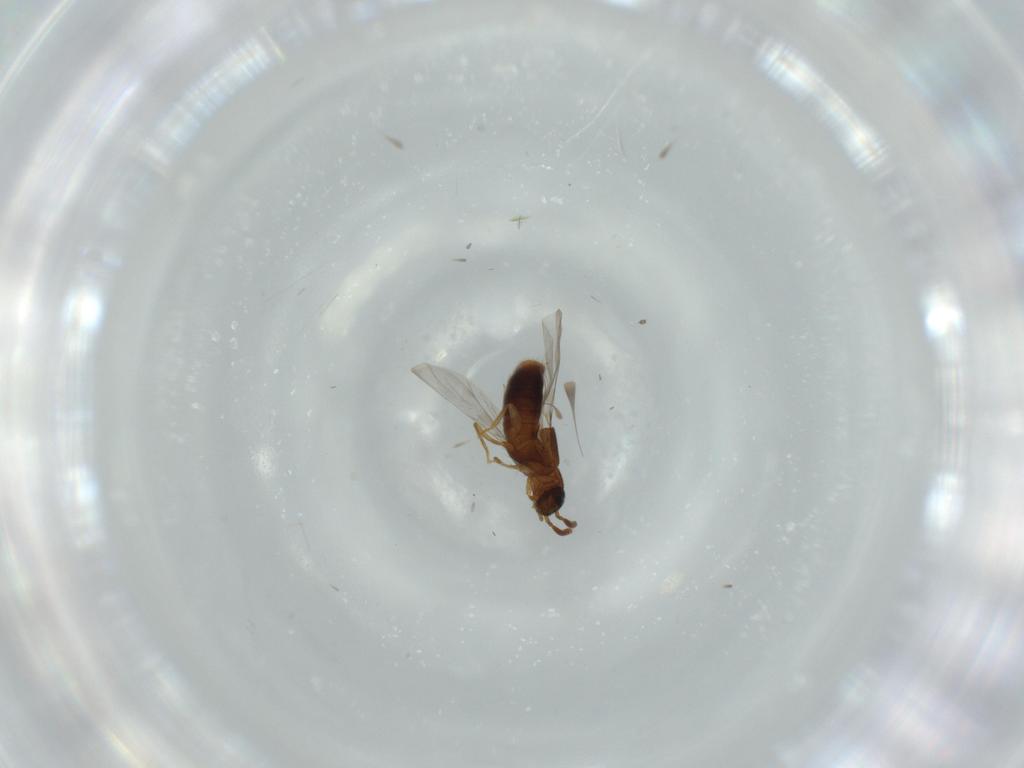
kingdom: Animalia
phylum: Arthropoda
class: Insecta
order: Coleoptera
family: Staphylinidae
